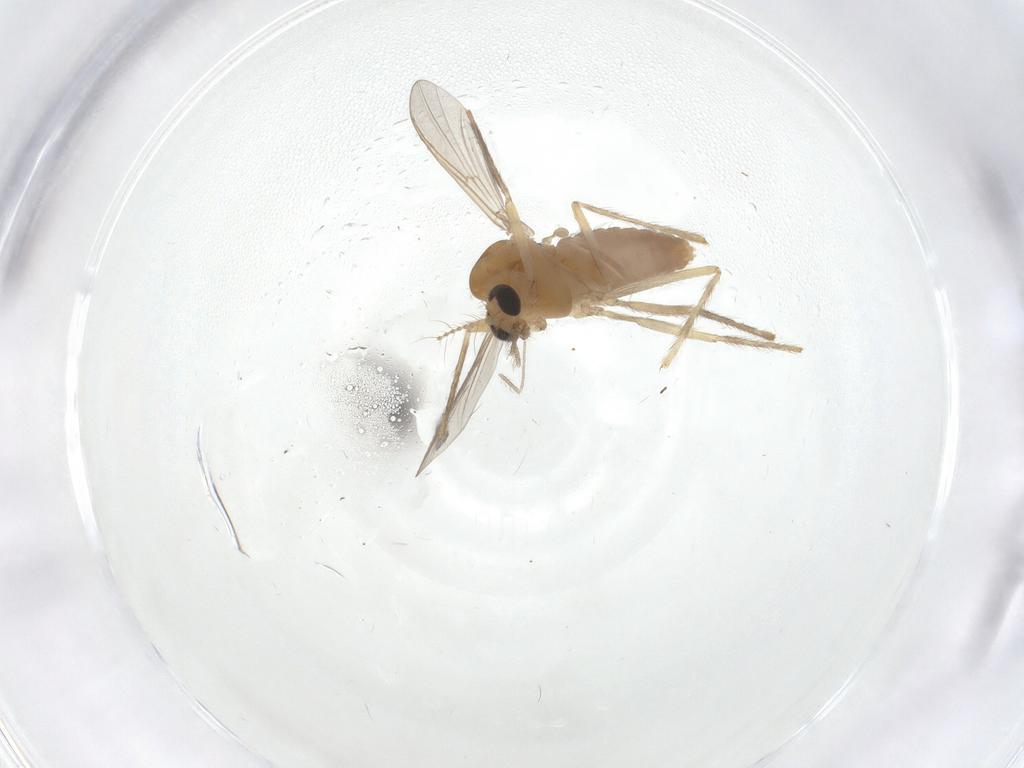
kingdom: Animalia
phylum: Arthropoda
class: Insecta
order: Diptera
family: Chironomidae
